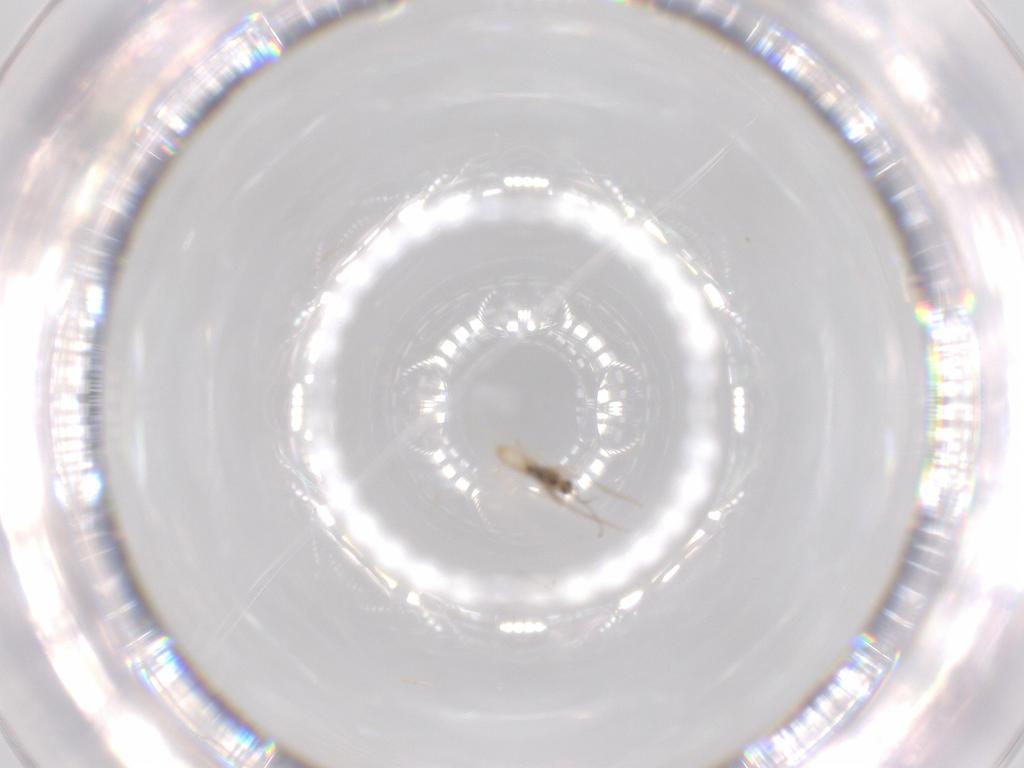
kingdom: Animalia
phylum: Arthropoda
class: Insecta
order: Diptera
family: Cecidomyiidae
